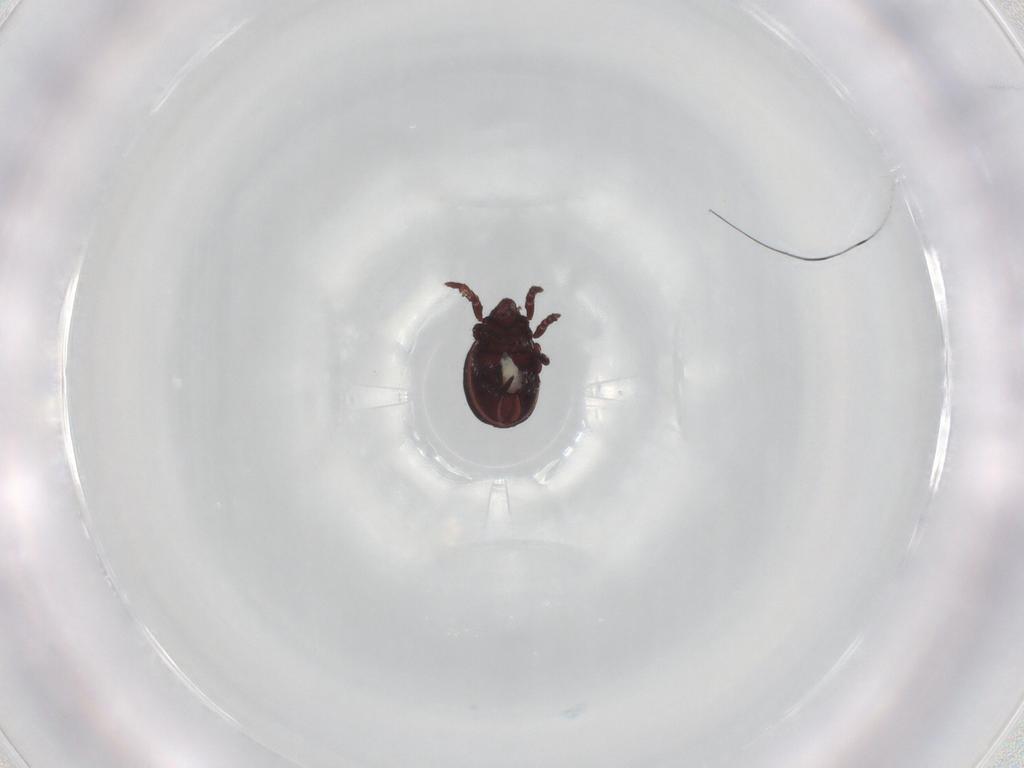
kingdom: Animalia
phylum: Arthropoda
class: Arachnida
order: Sarcoptiformes
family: Hermanniidae
